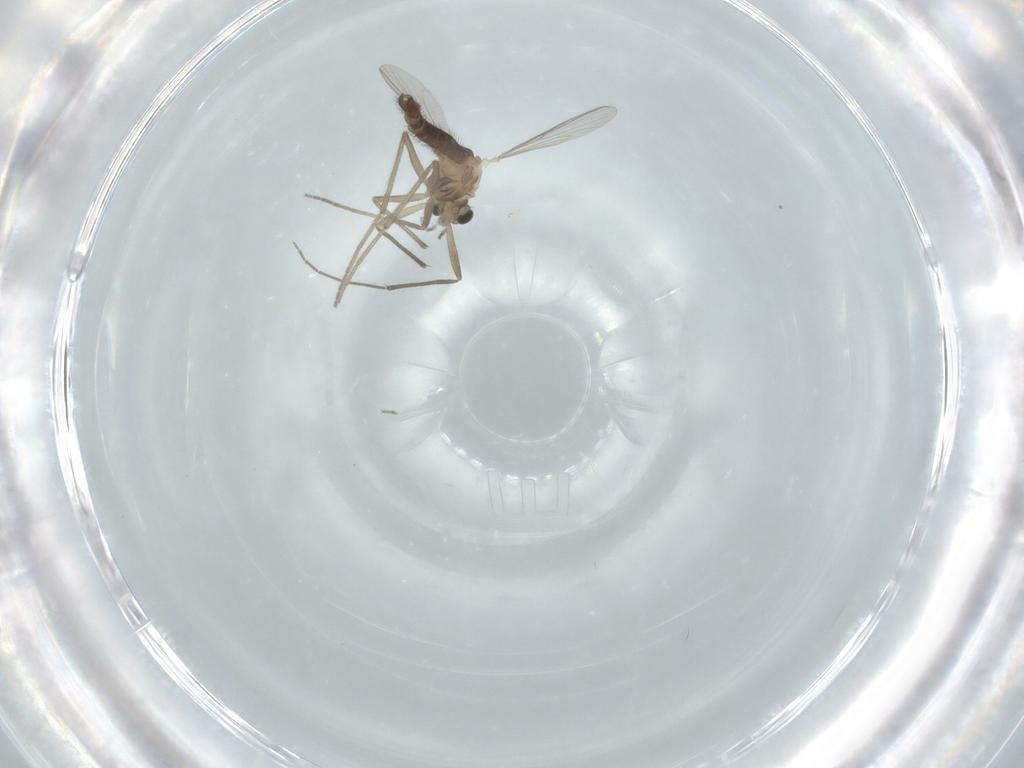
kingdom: Animalia
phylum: Arthropoda
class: Insecta
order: Diptera
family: Chironomidae
